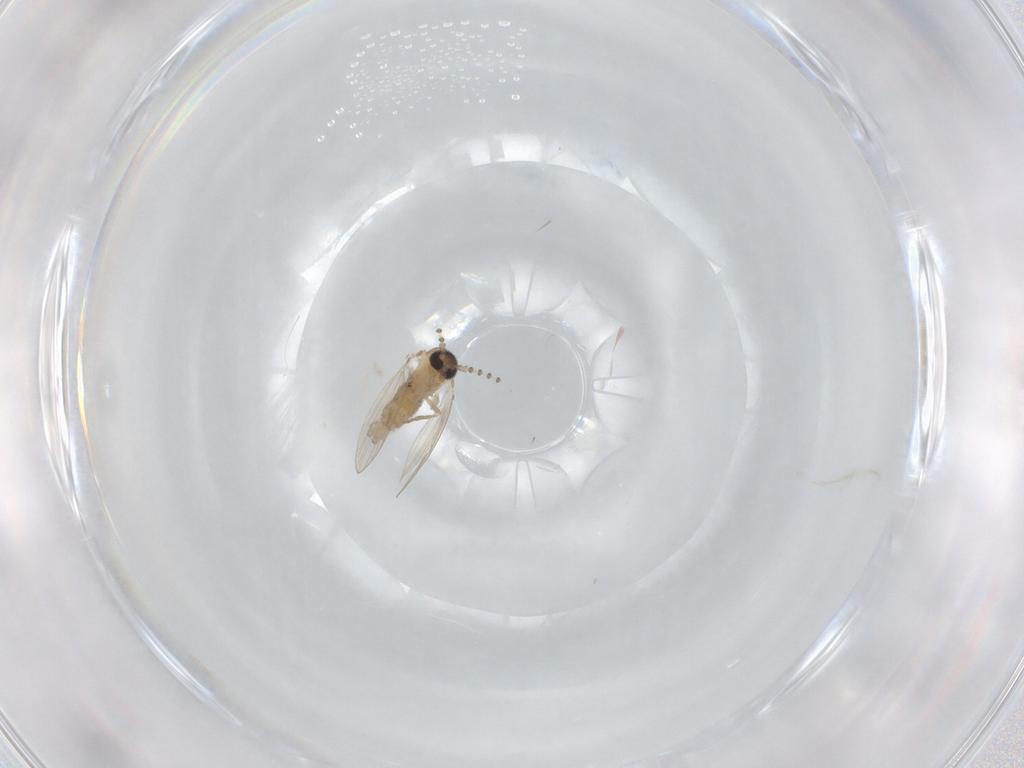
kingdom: Animalia
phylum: Arthropoda
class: Insecta
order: Diptera
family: Psychodidae
